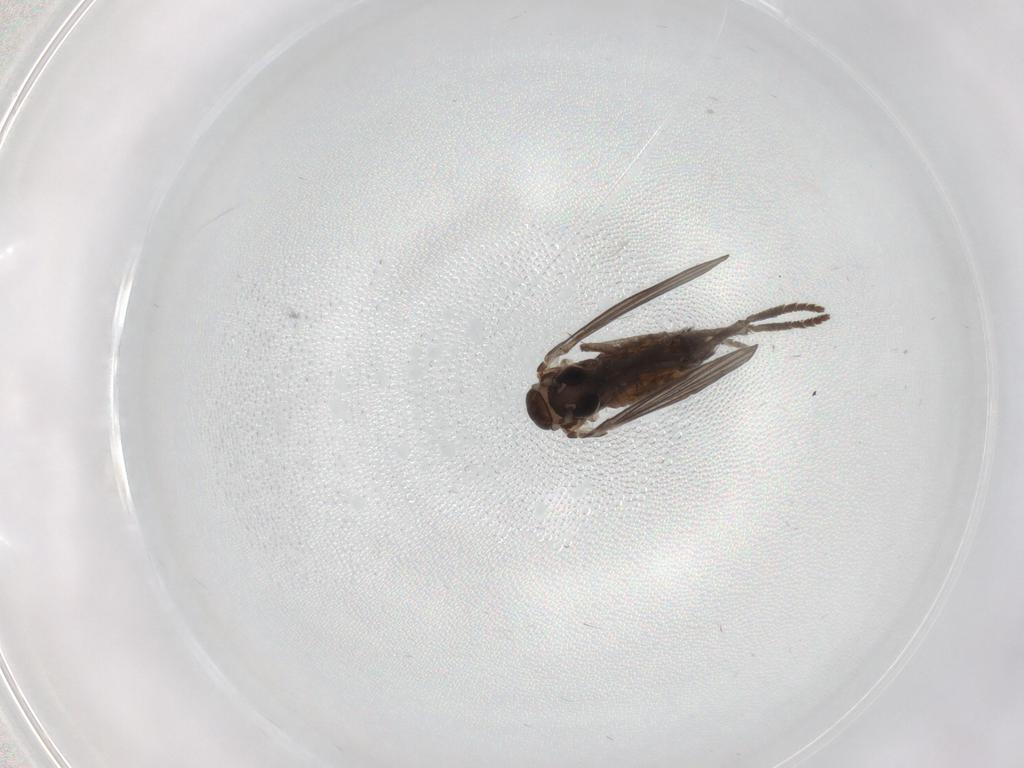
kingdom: Animalia
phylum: Arthropoda
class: Insecta
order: Diptera
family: Psychodidae
